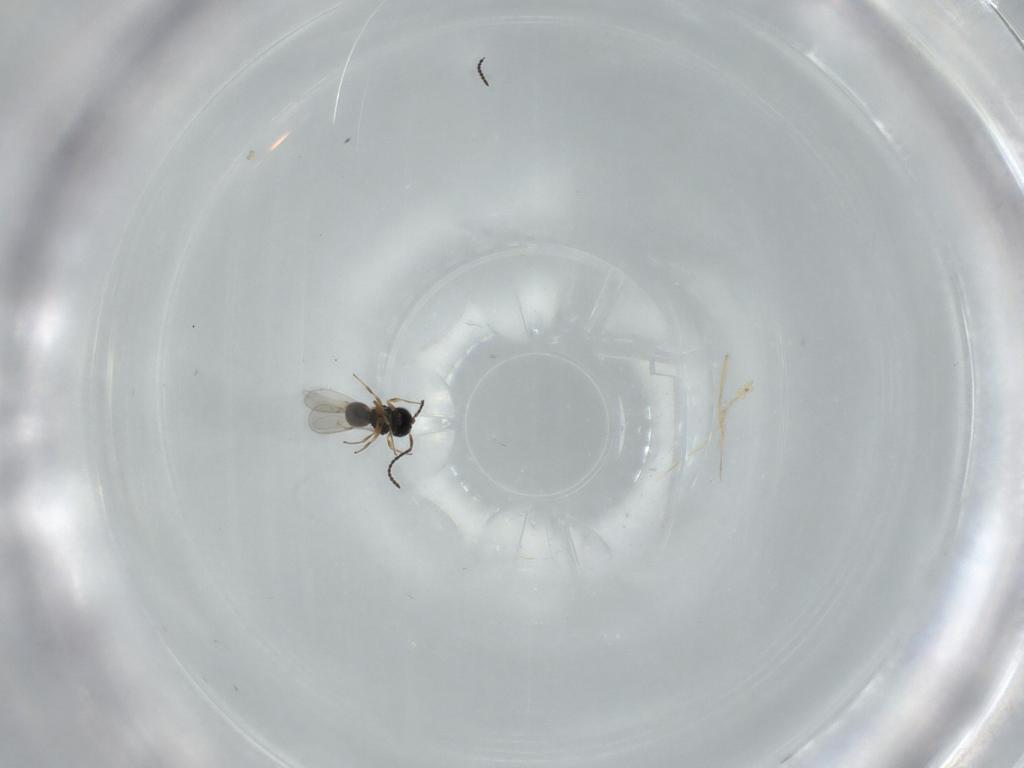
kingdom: Animalia
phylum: Arthropoda
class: Insecta
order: Hymenoptera
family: Scelionidae
